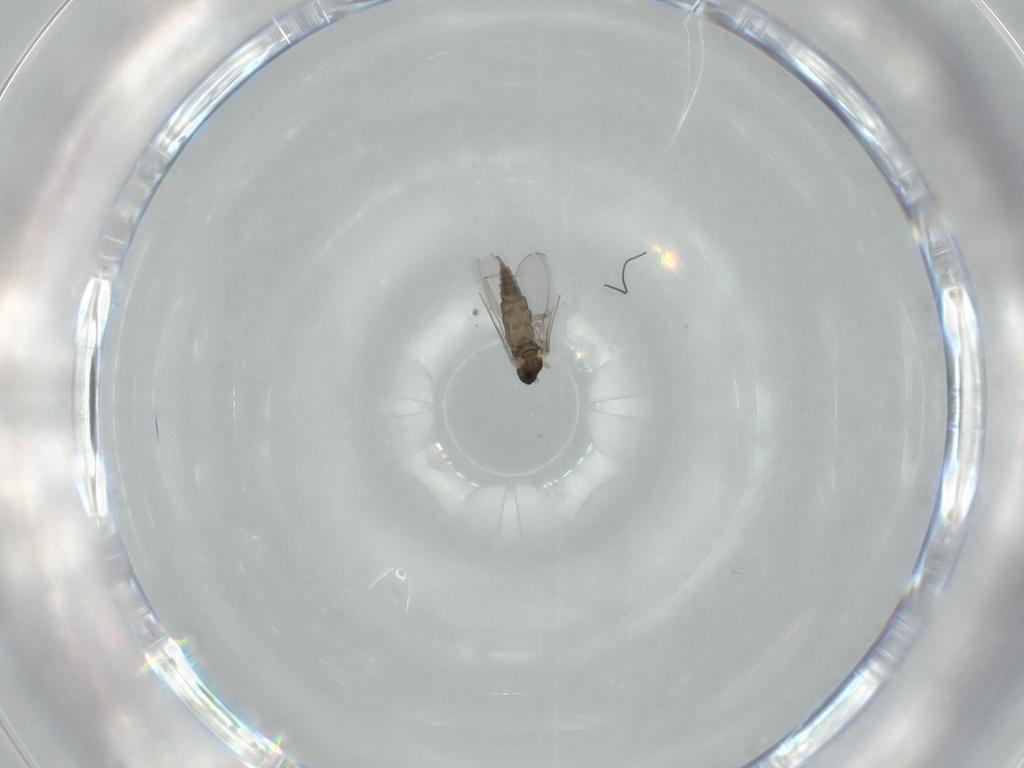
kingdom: Animalia
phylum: Arthropoda
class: Insecta
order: Diptera
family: Cecidomyiidae
